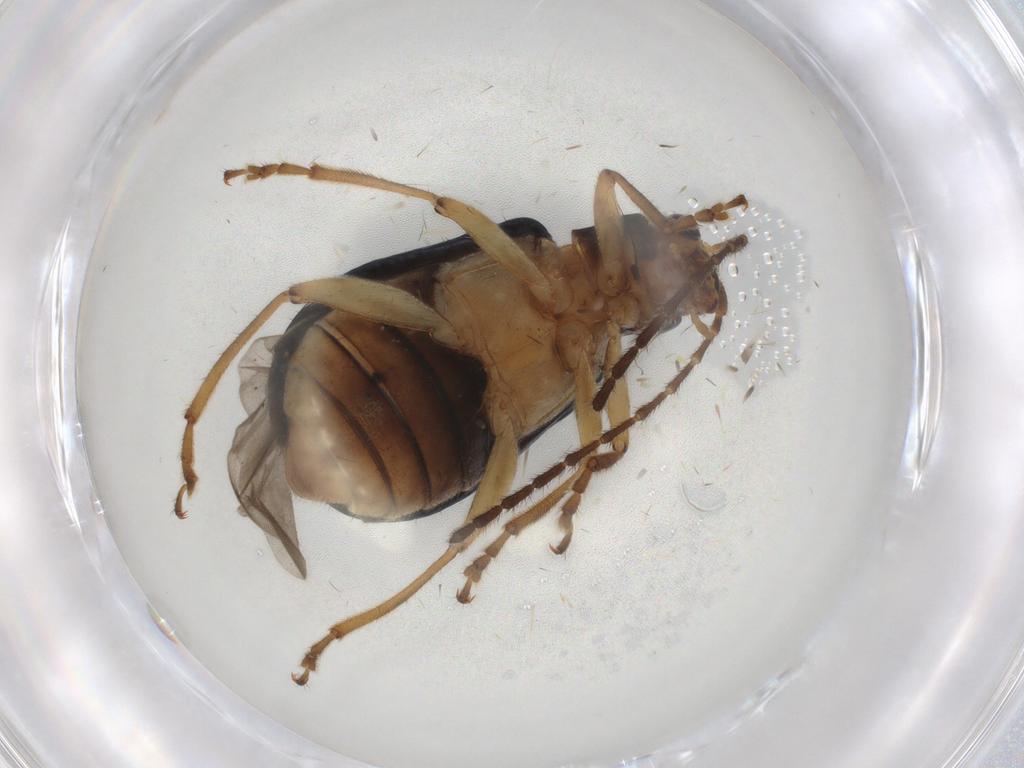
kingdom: Animalia
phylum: Arthropoda
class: Insecta
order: Coleoptera
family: Chrysomelidae
